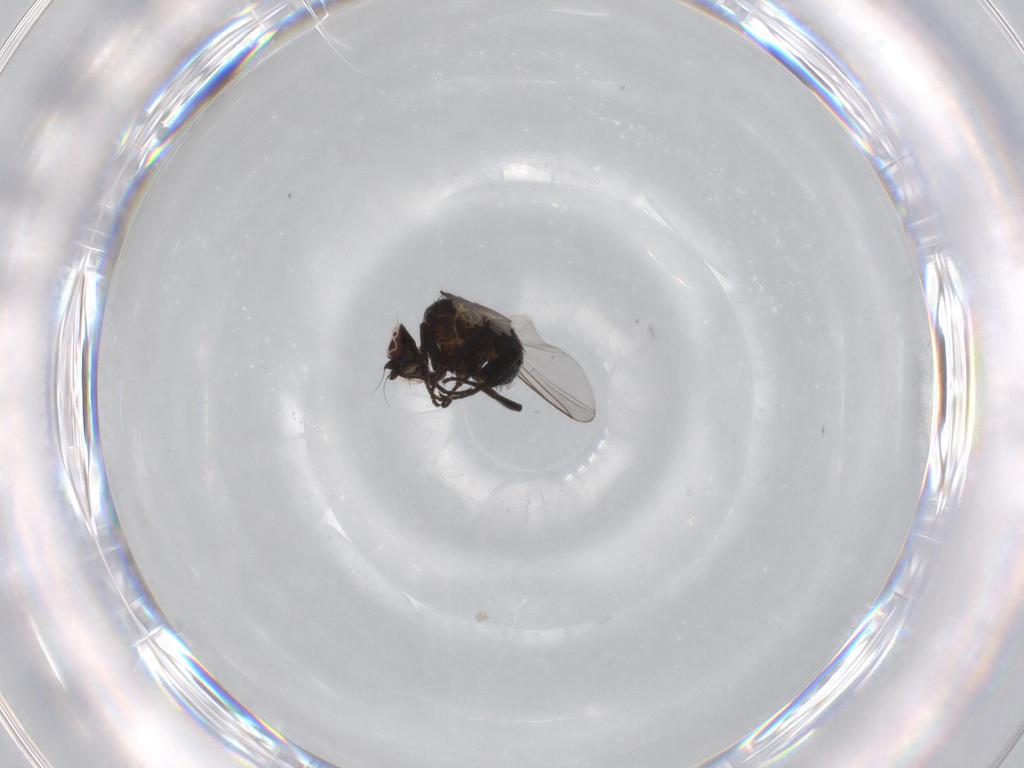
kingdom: Animalia
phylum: Arthropoda
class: Insecta
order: Diptera
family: Sphaeroceridae
